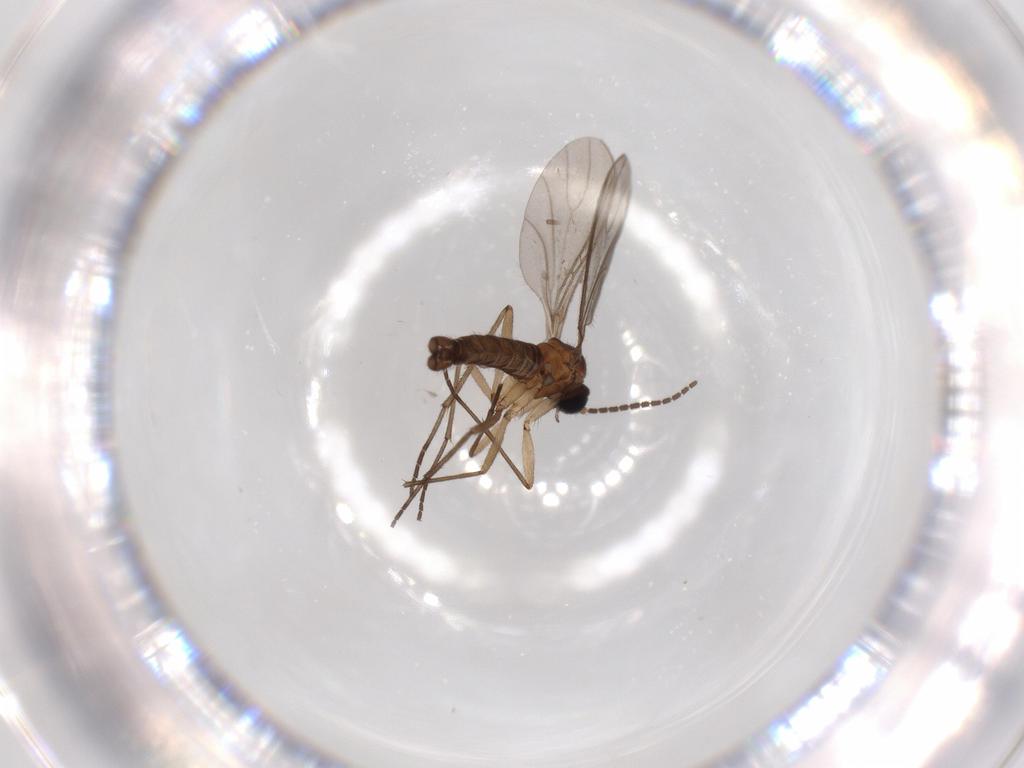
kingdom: Animalia
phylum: Arthropoda
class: Insecta
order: Diptera
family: Sciaridae
